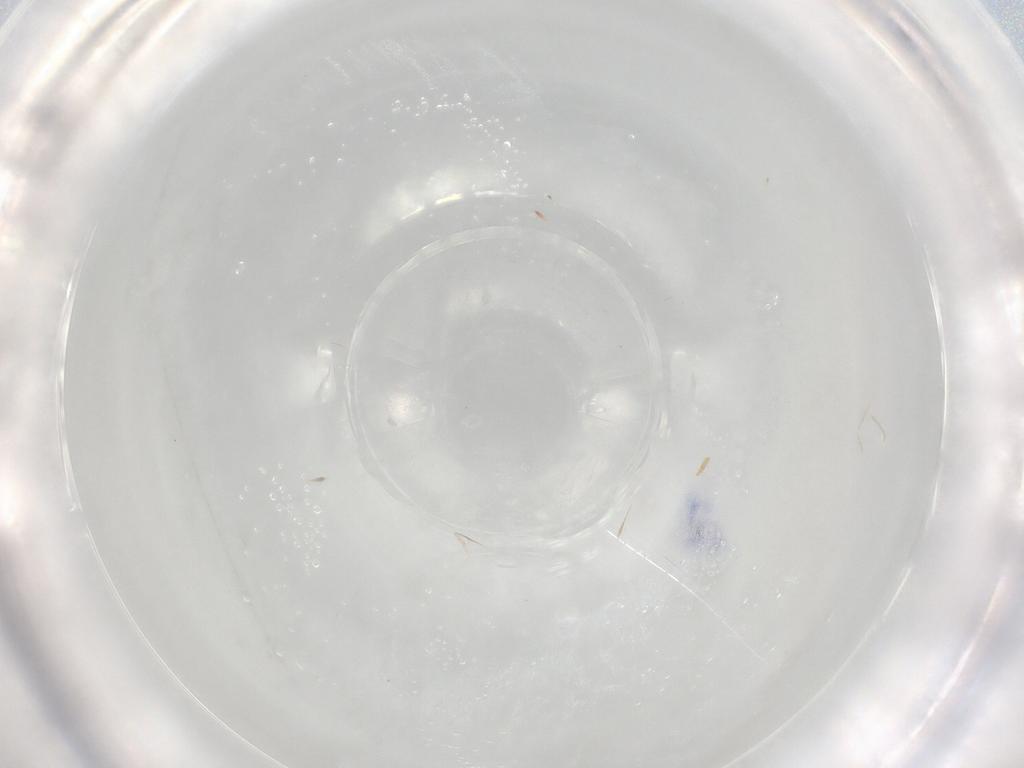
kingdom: Animalia
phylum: Arthropoda
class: Insecta
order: Diptera
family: Cecidomyiidae
